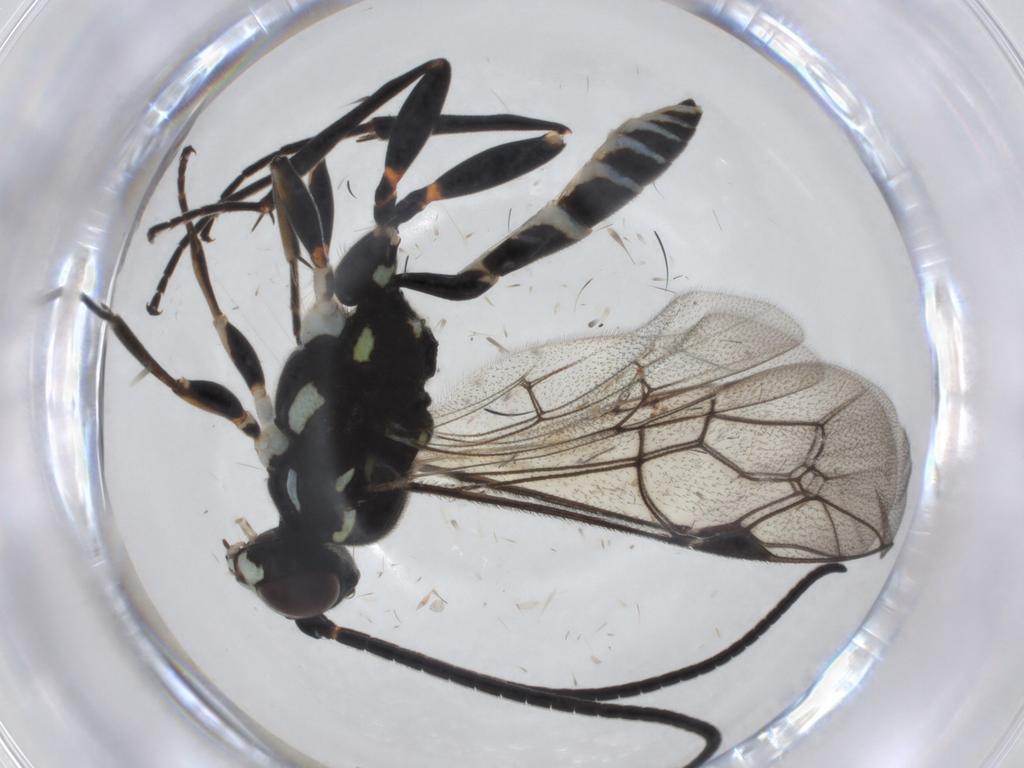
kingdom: Animalia
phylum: Arthropoda
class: Insecta
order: Hymenoptera
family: Ichneumonidae
